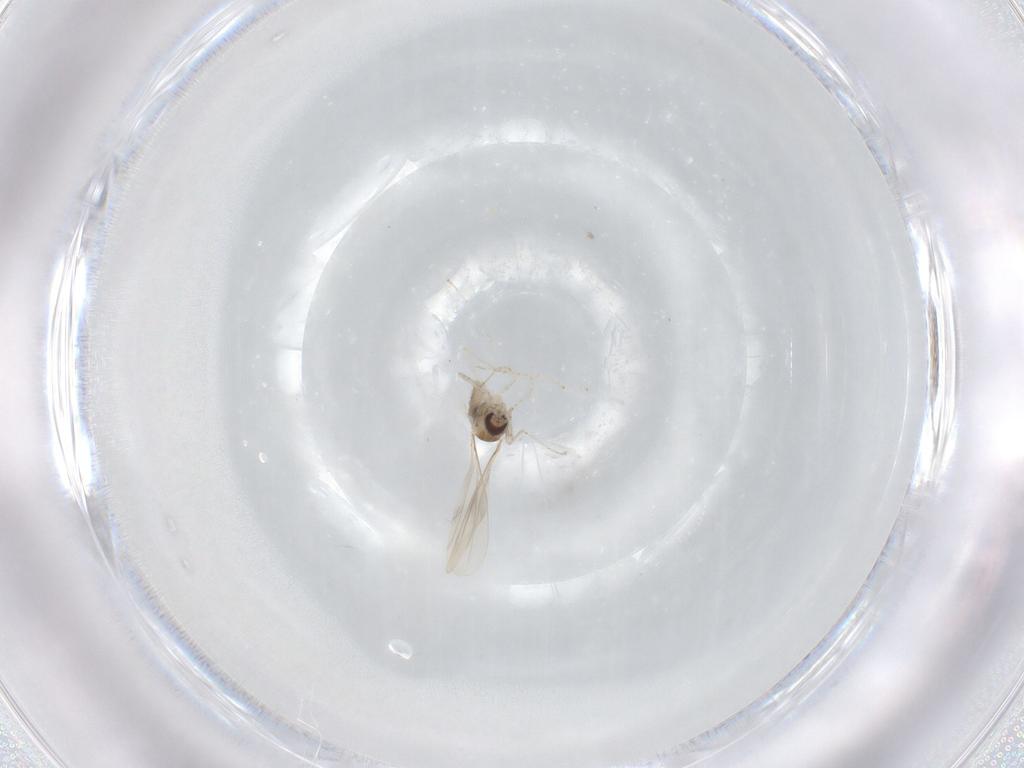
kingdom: Animalia
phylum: Arthropoda
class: Insecta
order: Diptera
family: Cecidomyiidae
